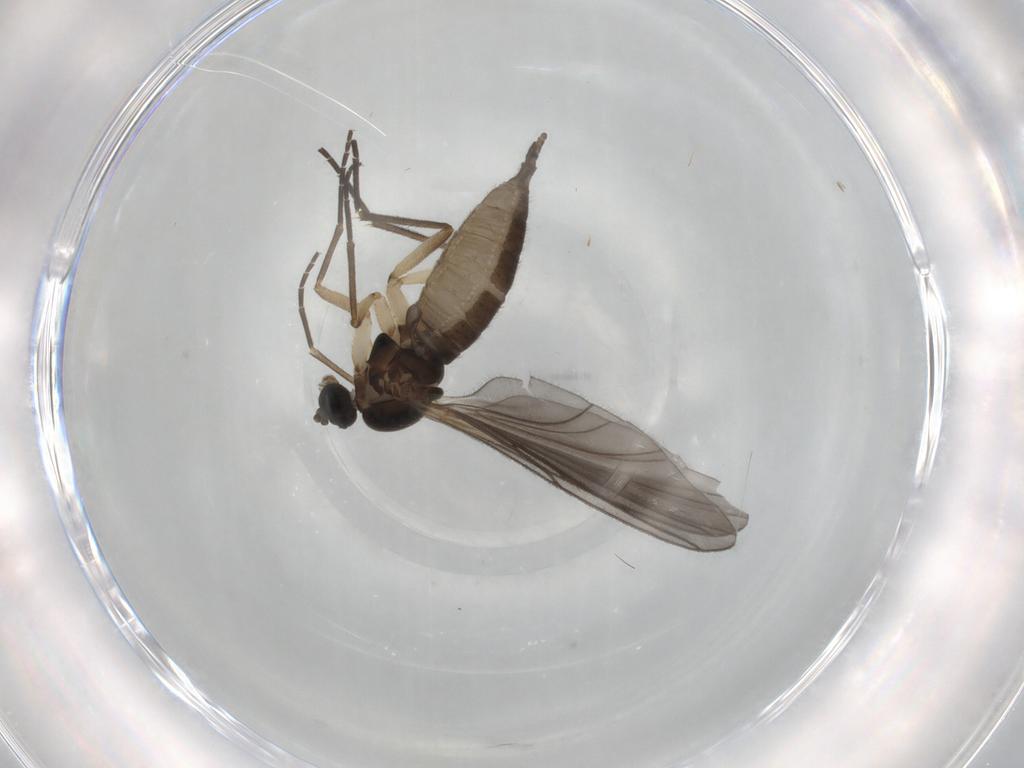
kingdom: Animalia
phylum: Arthropoda
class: Insecta
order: Diptera
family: Sciaridae
